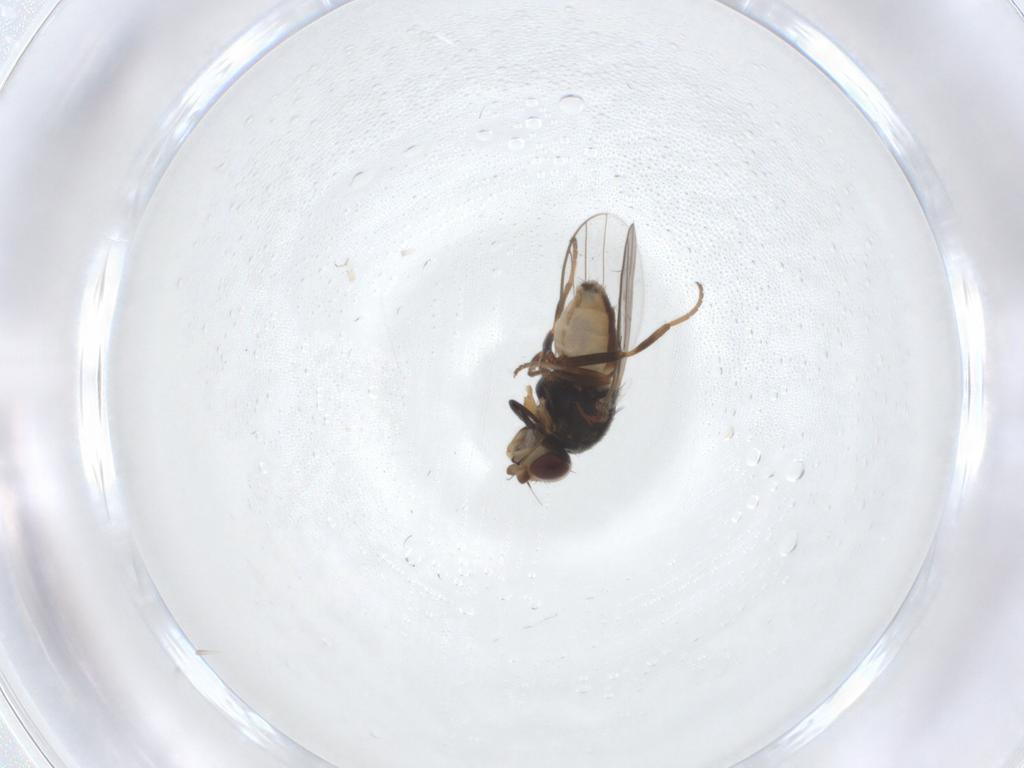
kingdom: Animalia
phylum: Arthropoda
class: Insecta
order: Diptera
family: Chloropidae
